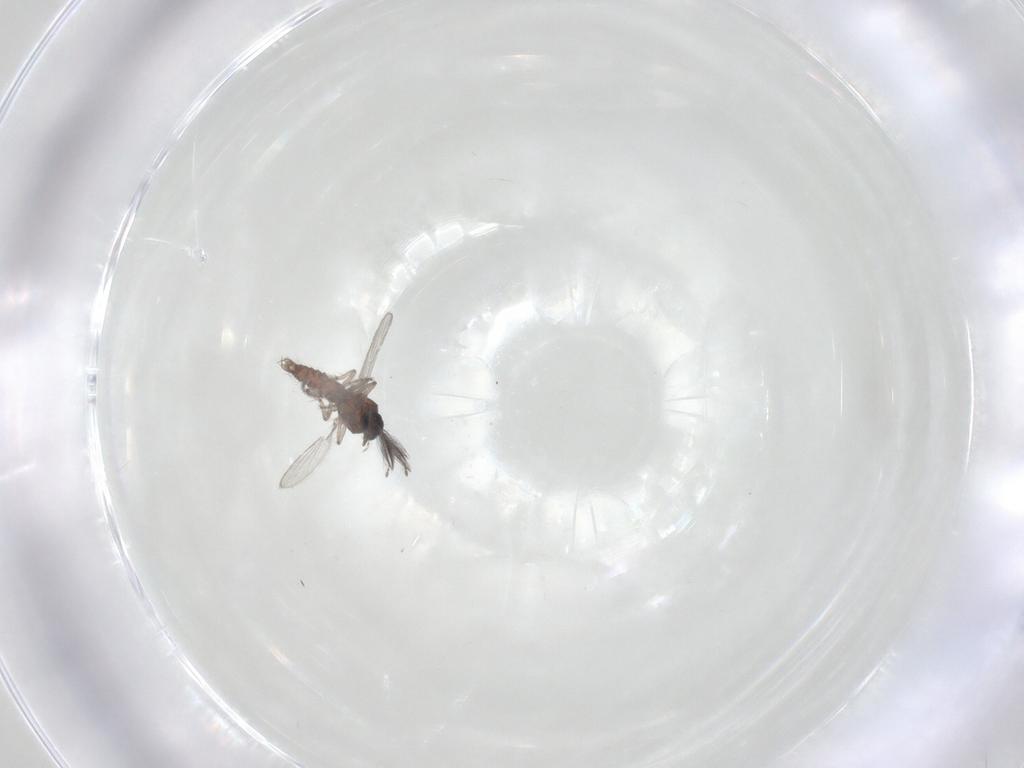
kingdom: Animalia
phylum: Arthropoda
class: Insecta
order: Diptera
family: Ceratopogonidae
